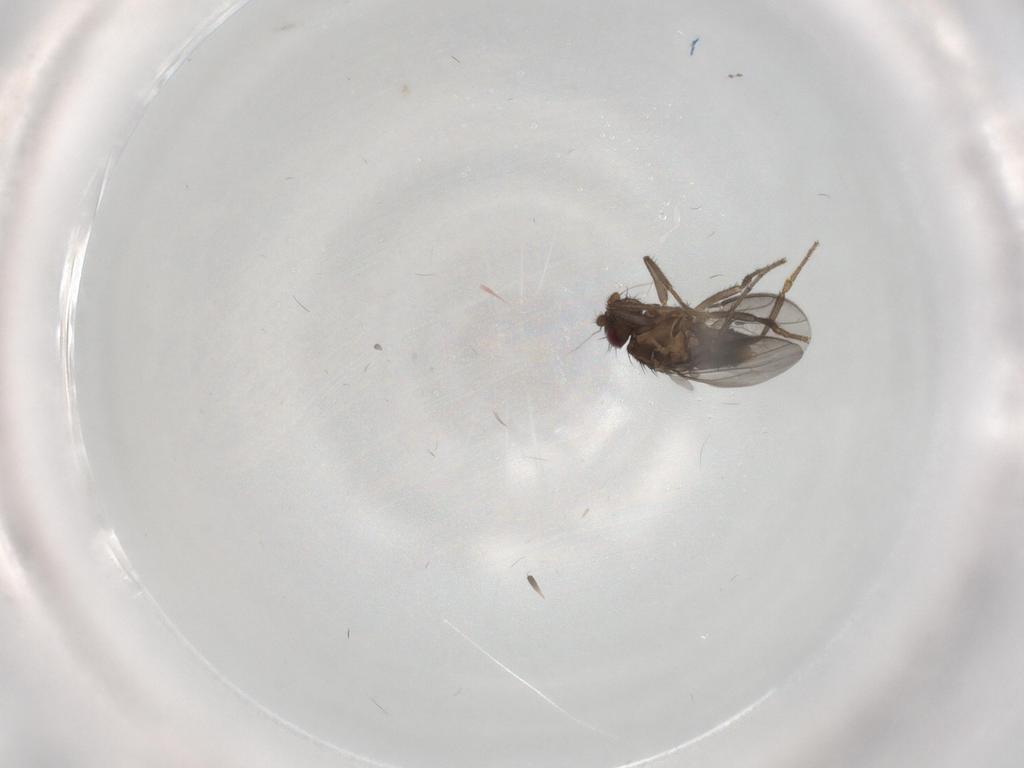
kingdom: Animalia
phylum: Arthropoda
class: Insecta
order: Diptera
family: Sphaeroceridae
